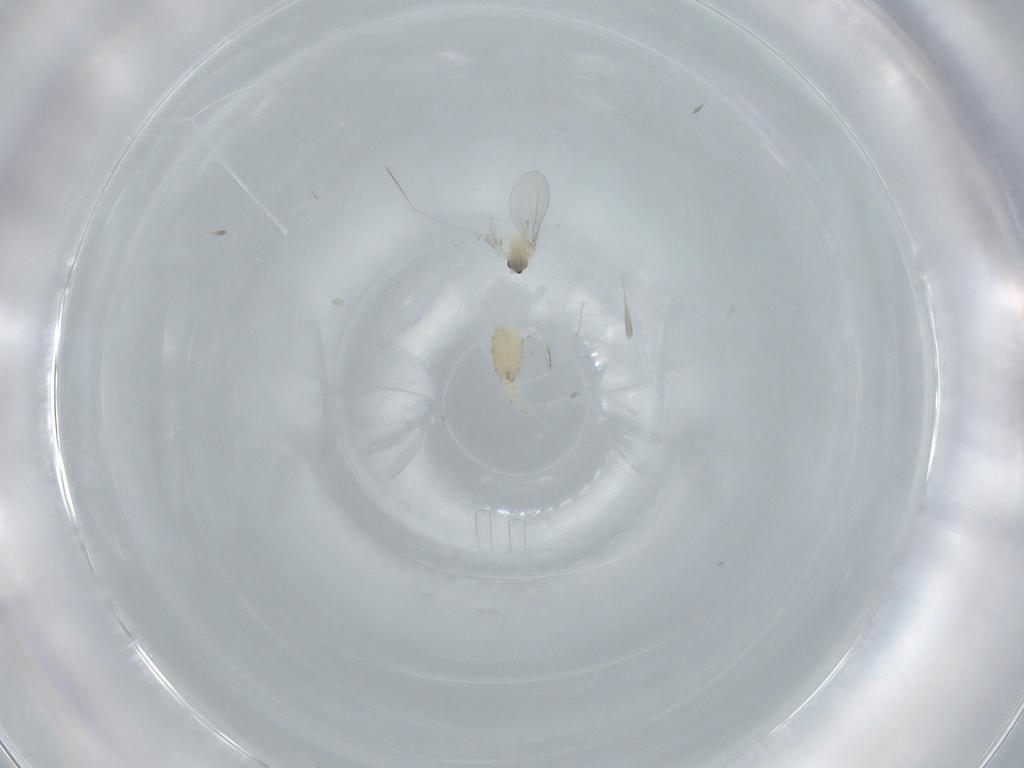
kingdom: Animalia
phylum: Arthropoda
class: Insecta
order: Diptera
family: Cecidomyiidae
